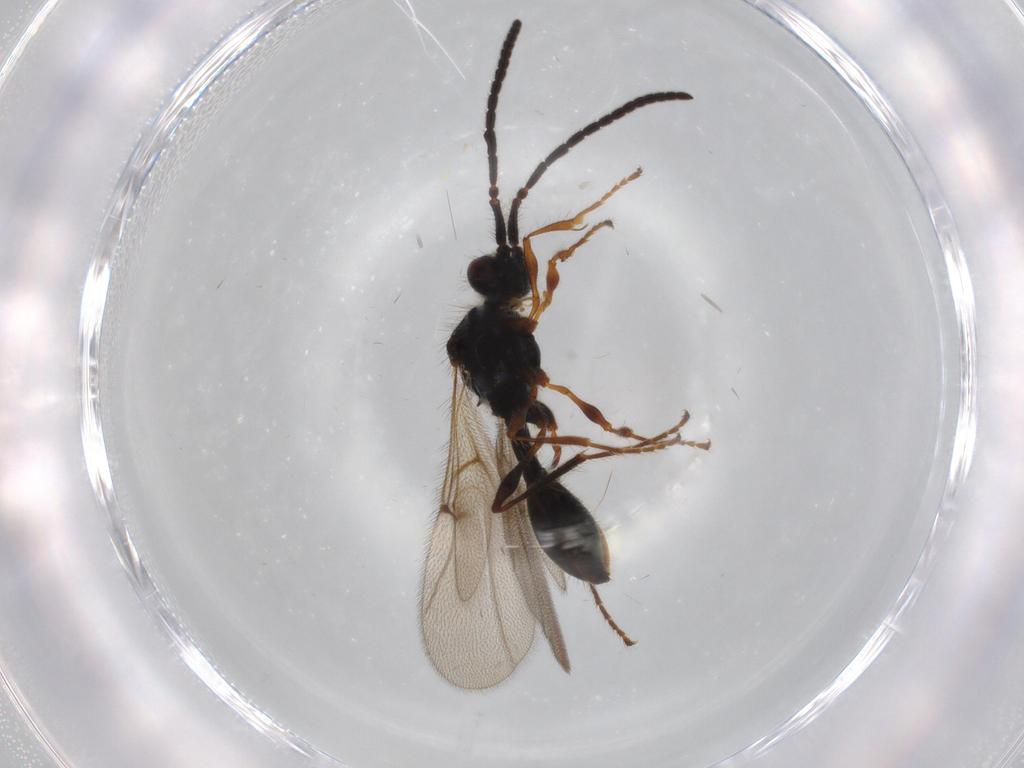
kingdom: Animalia
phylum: Arthropoda
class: Insecta
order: Hymenoptera
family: Diapriidae
